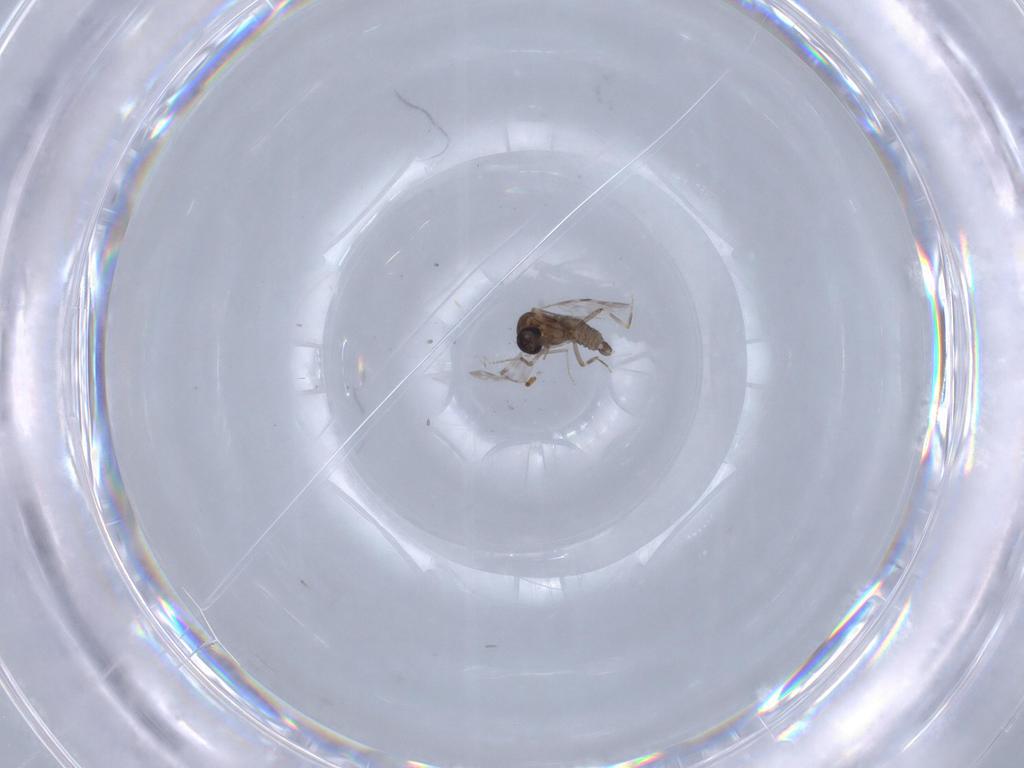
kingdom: Animalia
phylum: Arthropoda
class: Insecta
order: Diptera
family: Ceratopogonidae
